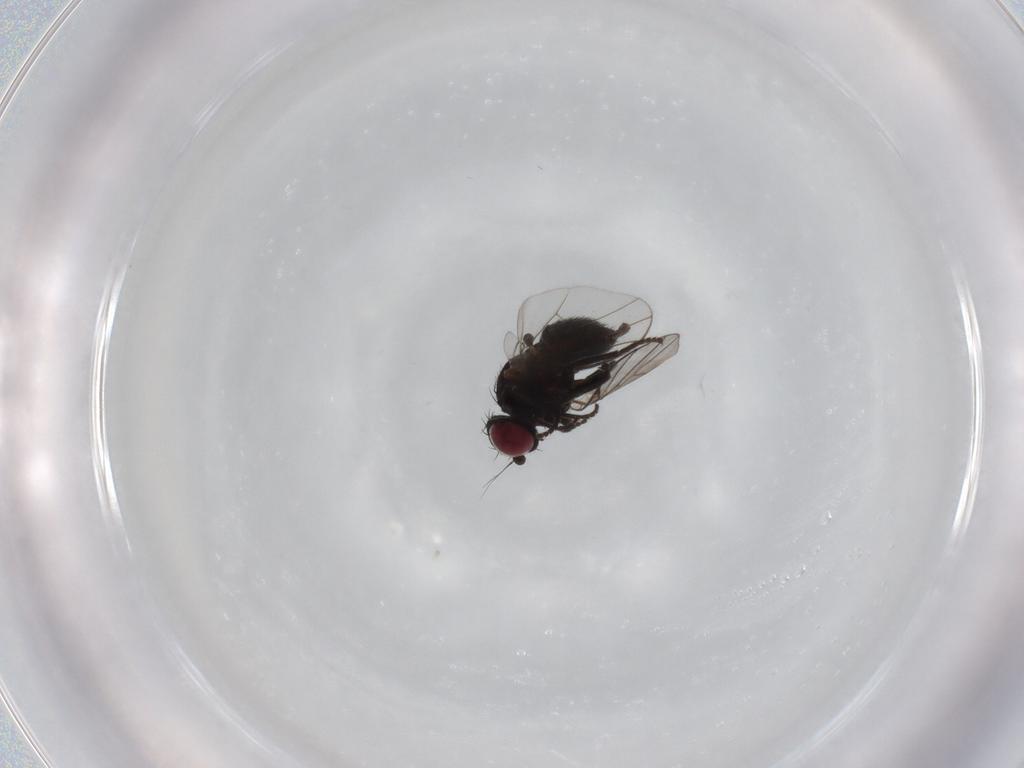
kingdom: Animalia
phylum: Arthropoda
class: Insecta
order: Diptera
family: Agromyzidae
